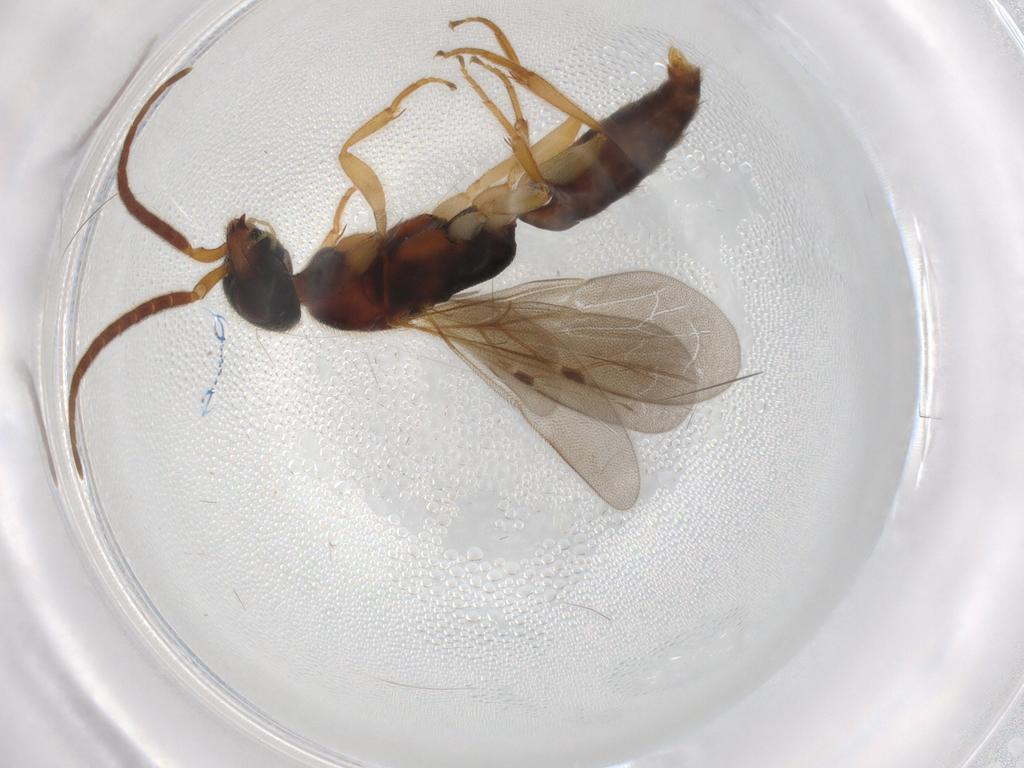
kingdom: Animalia
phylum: Arthropoda
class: Insecta
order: Hymenoptera
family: Bethylidae
